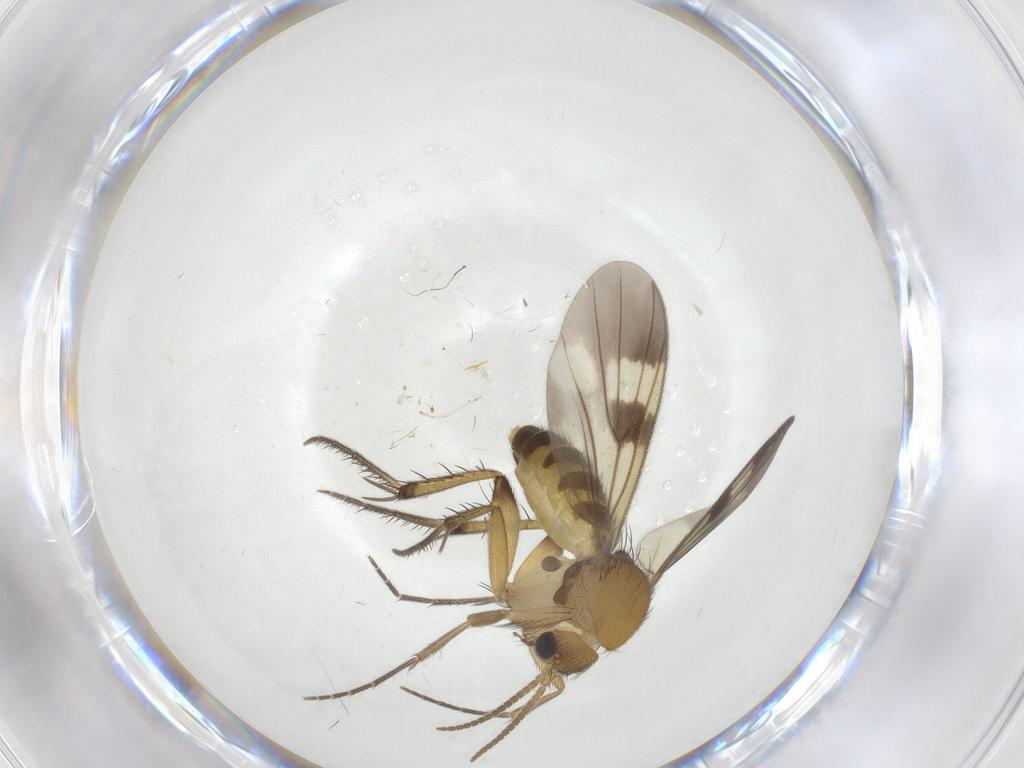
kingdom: Animalia
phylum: Arthropoda
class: Insecta
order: Diptera
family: Mycetophilidae
